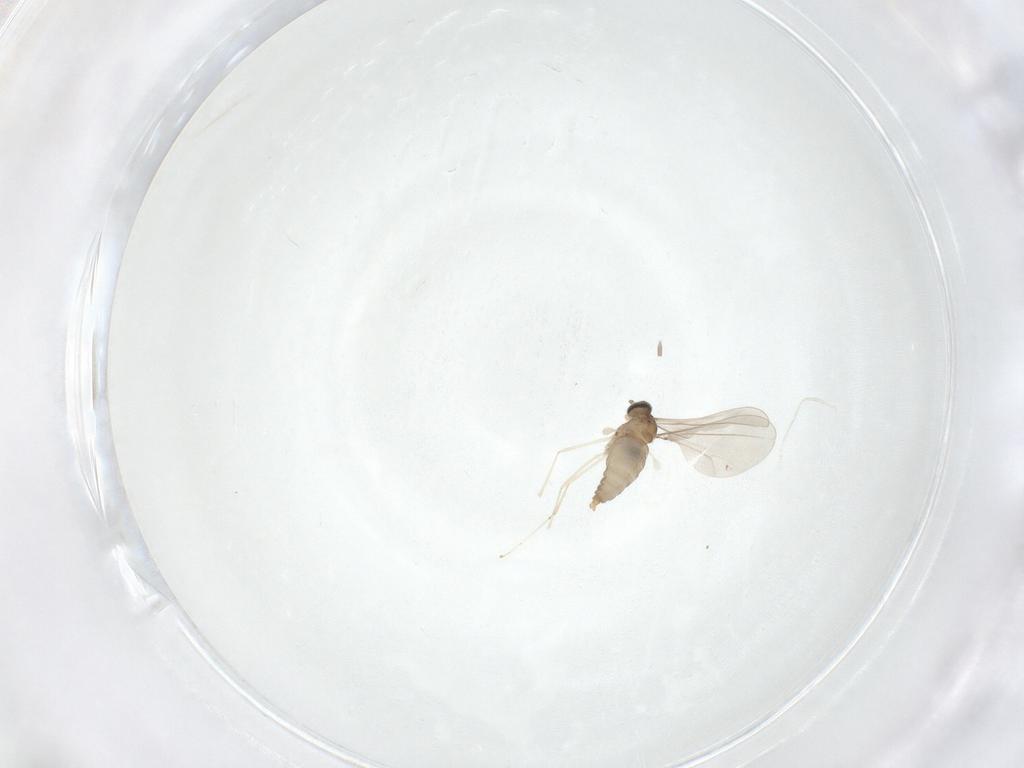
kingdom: Animalia
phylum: Arthropoda
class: Insecta
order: Diptera
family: Cecidomyiidae
